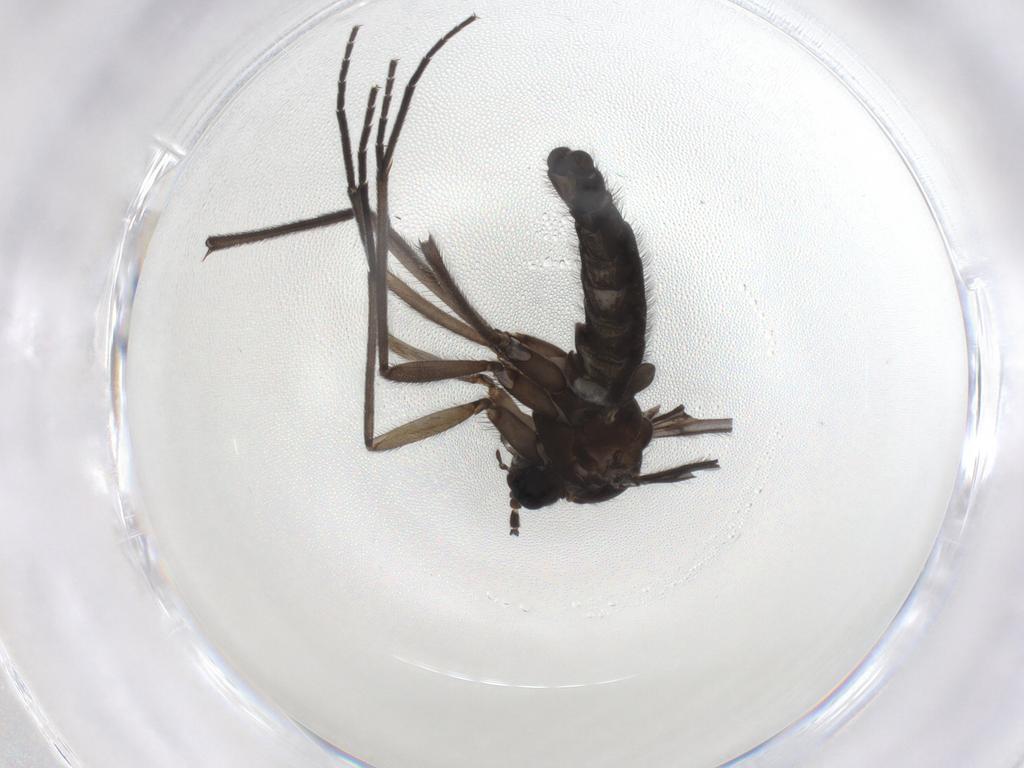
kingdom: Animalia
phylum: Arthropoda
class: Insecta
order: Diptera
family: Sciaridae
